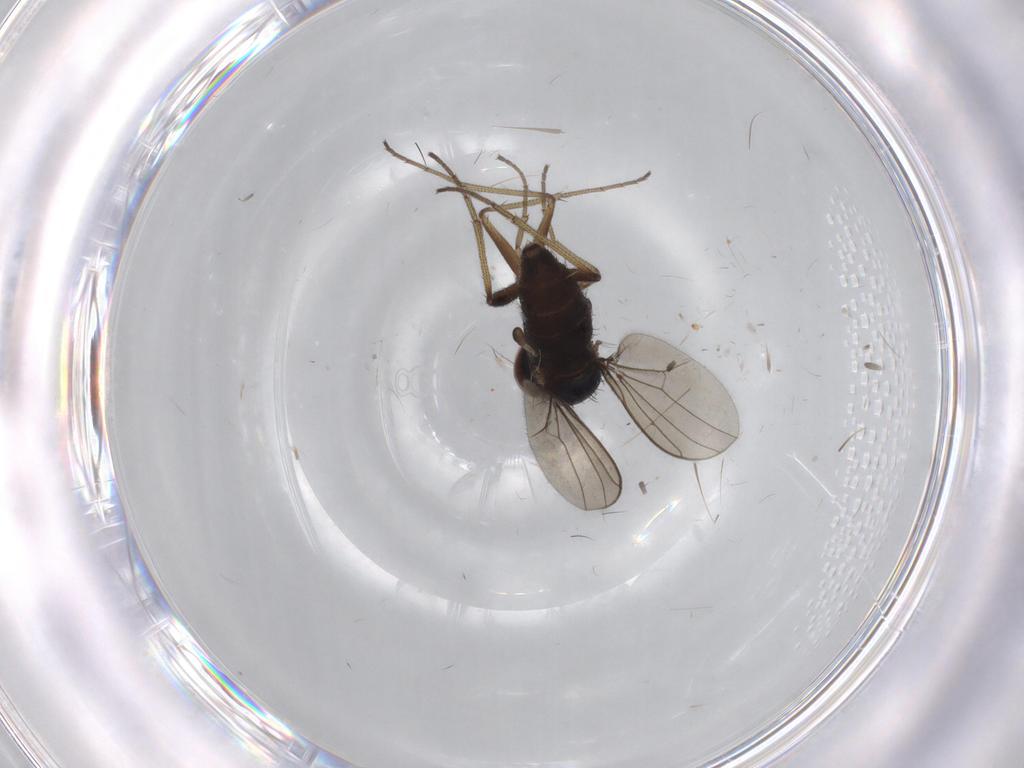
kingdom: Animalia
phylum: Arthropoda
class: Insecta
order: Diptera
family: Dolichopodidae
